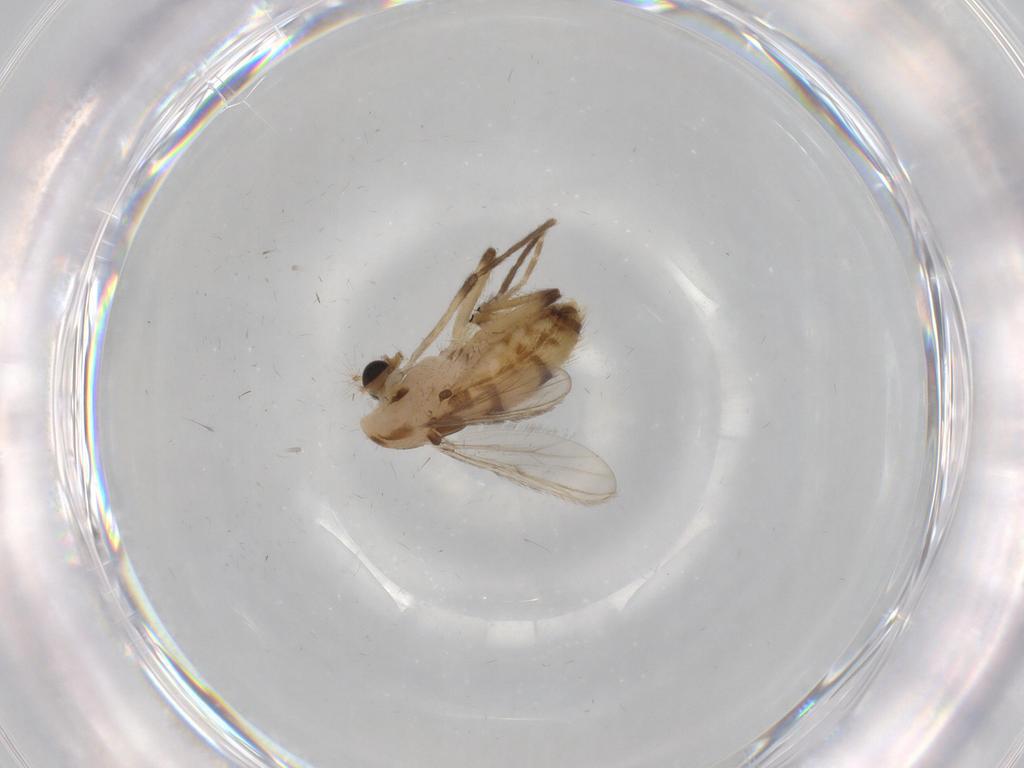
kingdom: Animalia
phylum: Arthropoda
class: Insecta
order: Diptera
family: Chironomidae
